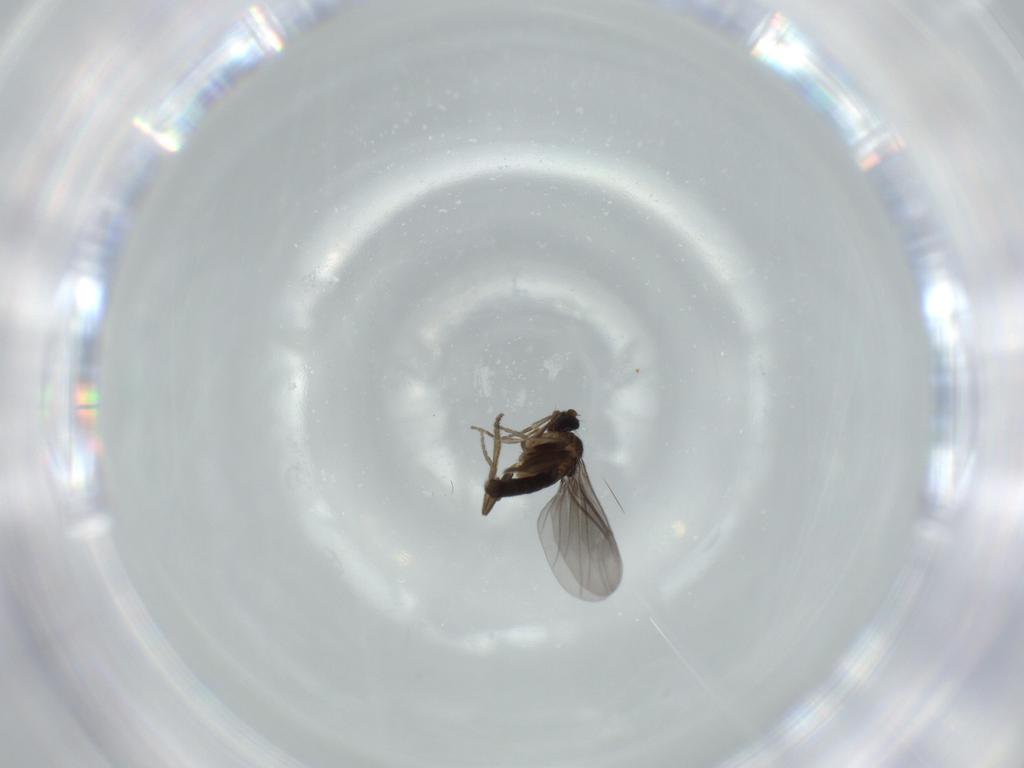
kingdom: Animalia
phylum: Arthropoda
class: Insecta
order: Diptera
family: Phoridae
